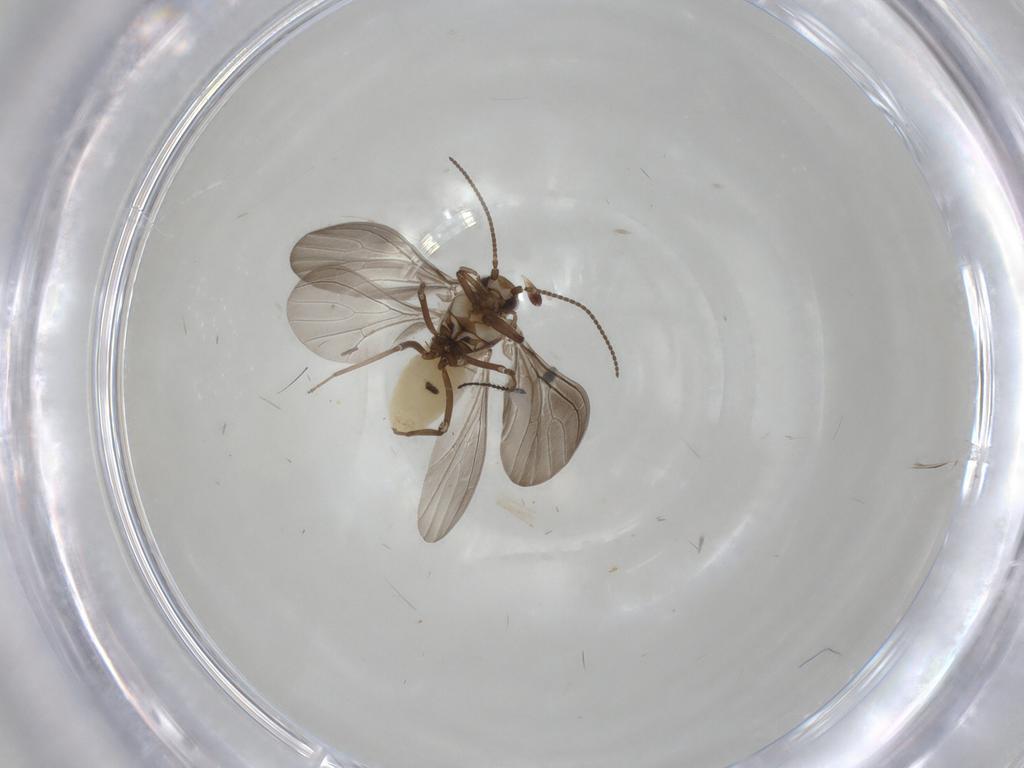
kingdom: Animalia
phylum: Arthropoda
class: Insecta
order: Neuroptera
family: Coniopterygidae
